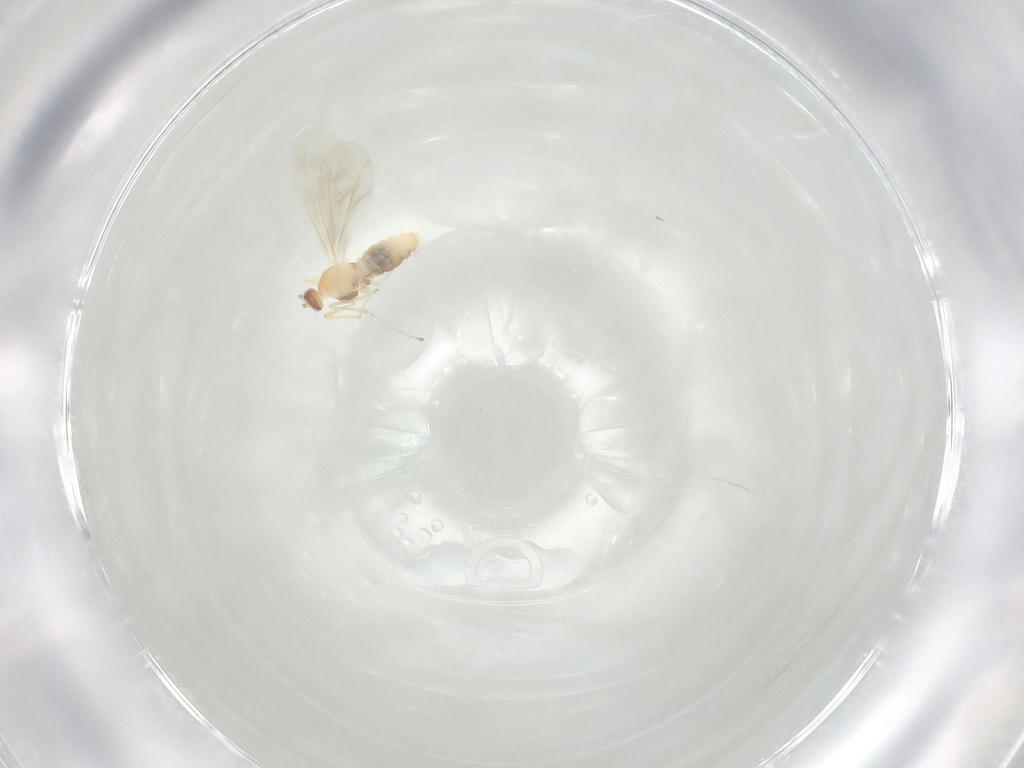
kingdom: Animalia
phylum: Arthropoda
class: Insecta
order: Diptera
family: Cecidomyiidae
